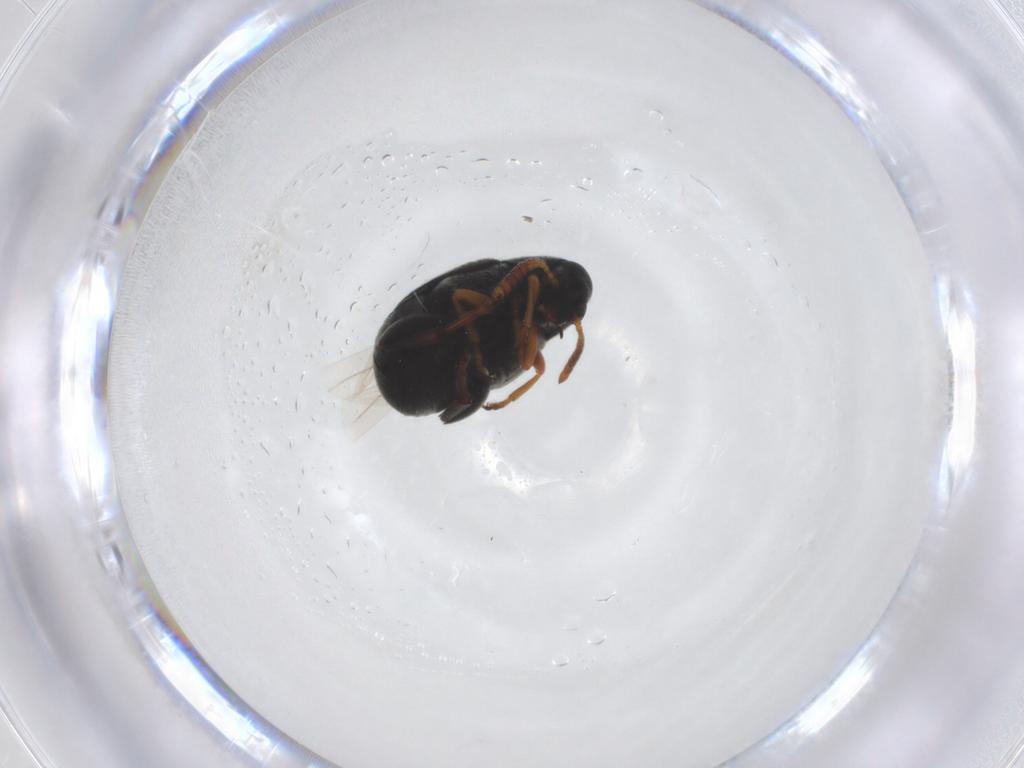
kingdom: Animalia
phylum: Arthropoda
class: Insecta
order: Coleoptera
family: Chrysomelidae
